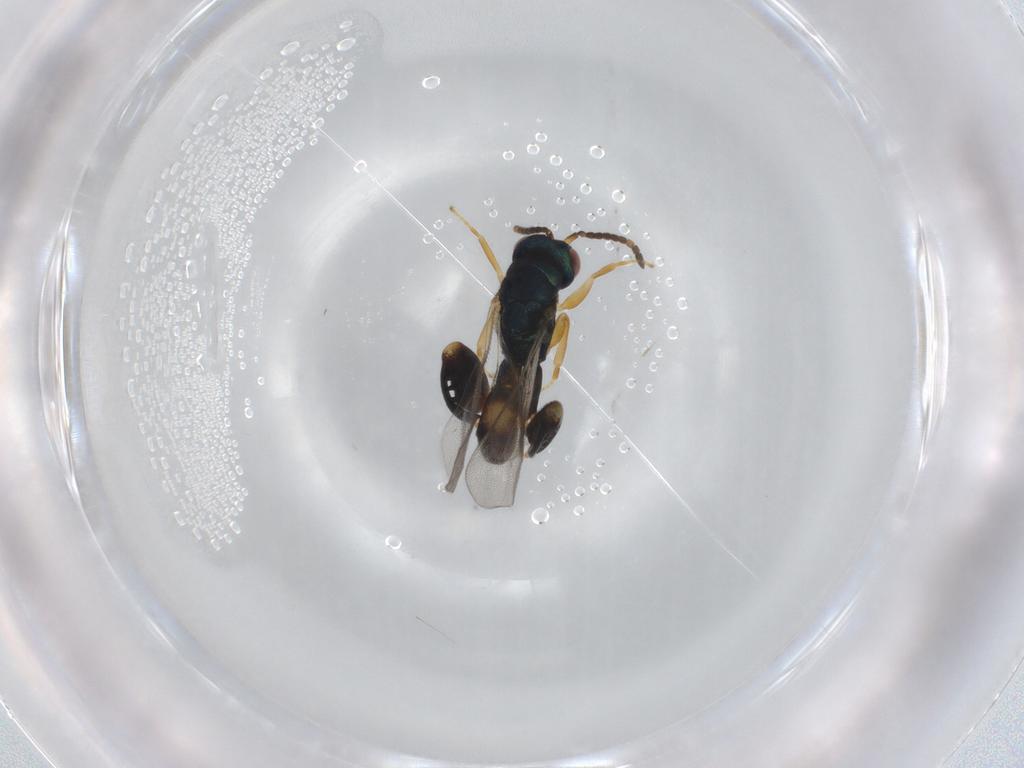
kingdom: Animalia
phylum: Arthropoda
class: Insecta
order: Hymenoptera
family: Torymidae
